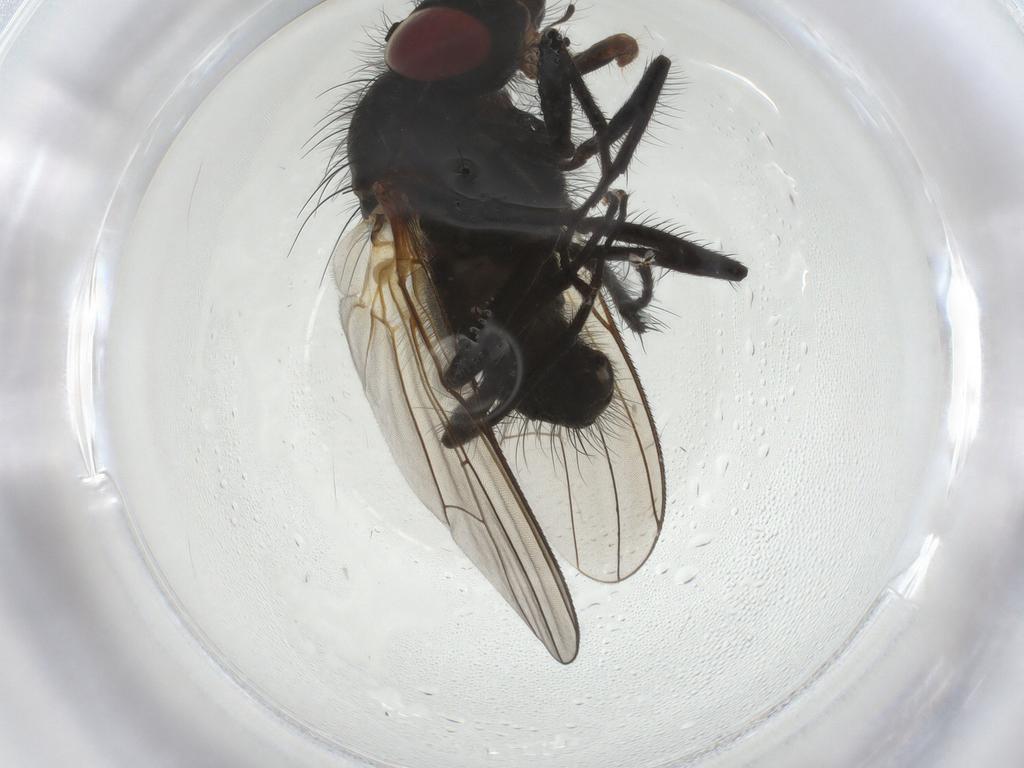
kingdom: Animalia
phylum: Arthropoda
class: Insecta
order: Diptera
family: Anthomyiidae
